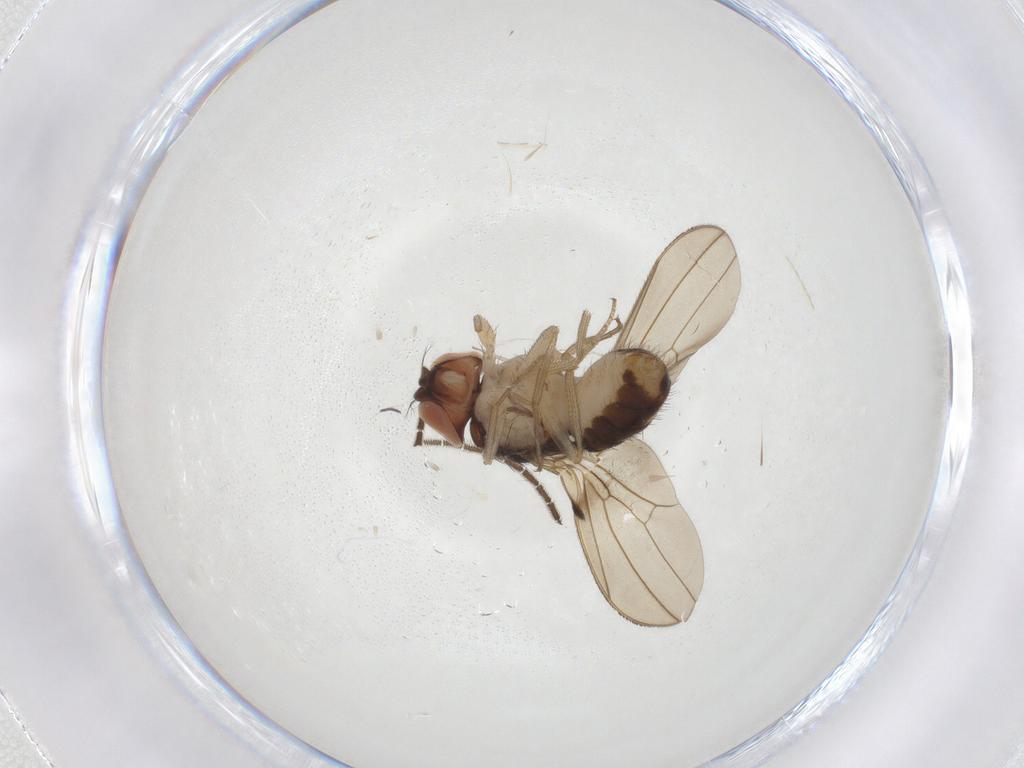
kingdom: Animalia
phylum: Arthropoda
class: Insecta
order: Diptera
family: Drosophilidae
